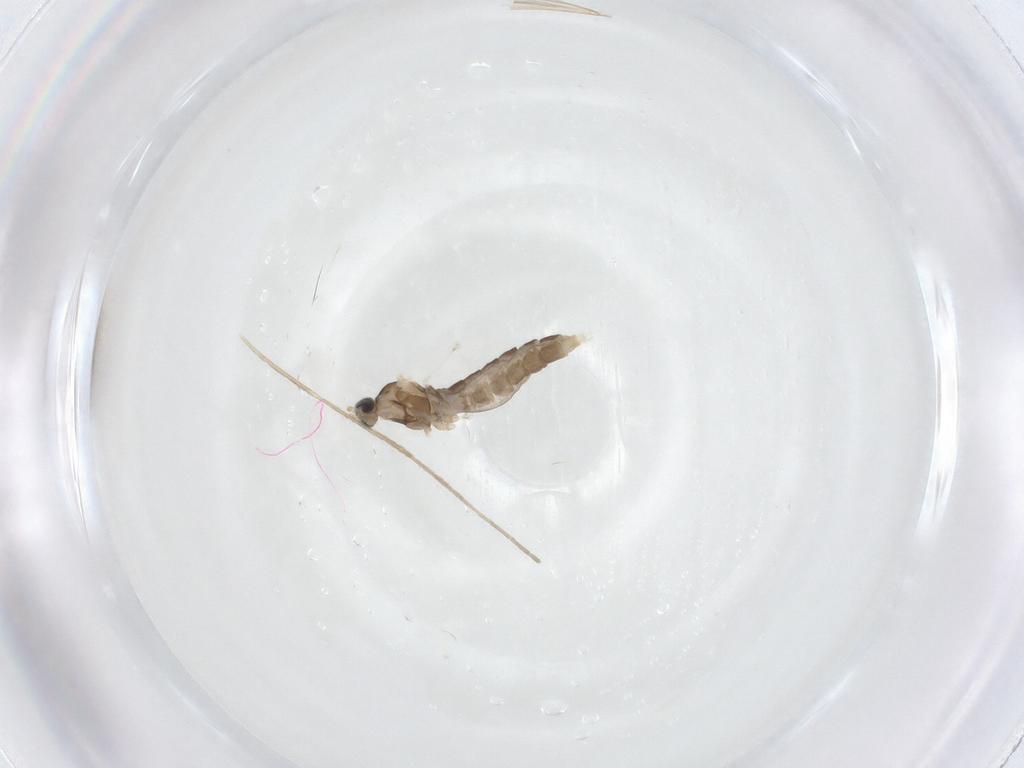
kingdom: Animalia
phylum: Arthropoda
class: Insecta
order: Diptera
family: Cecidomyiidae
